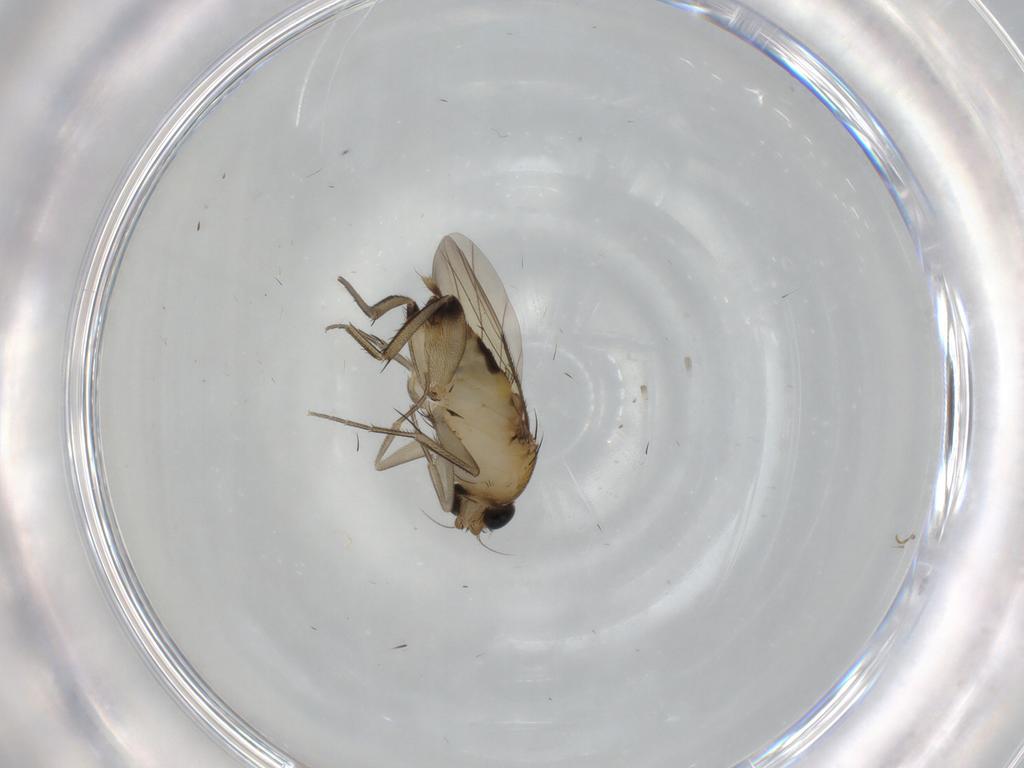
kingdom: Animalia
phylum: Arthropoda
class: Insecta
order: Diptera
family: Phoridae
